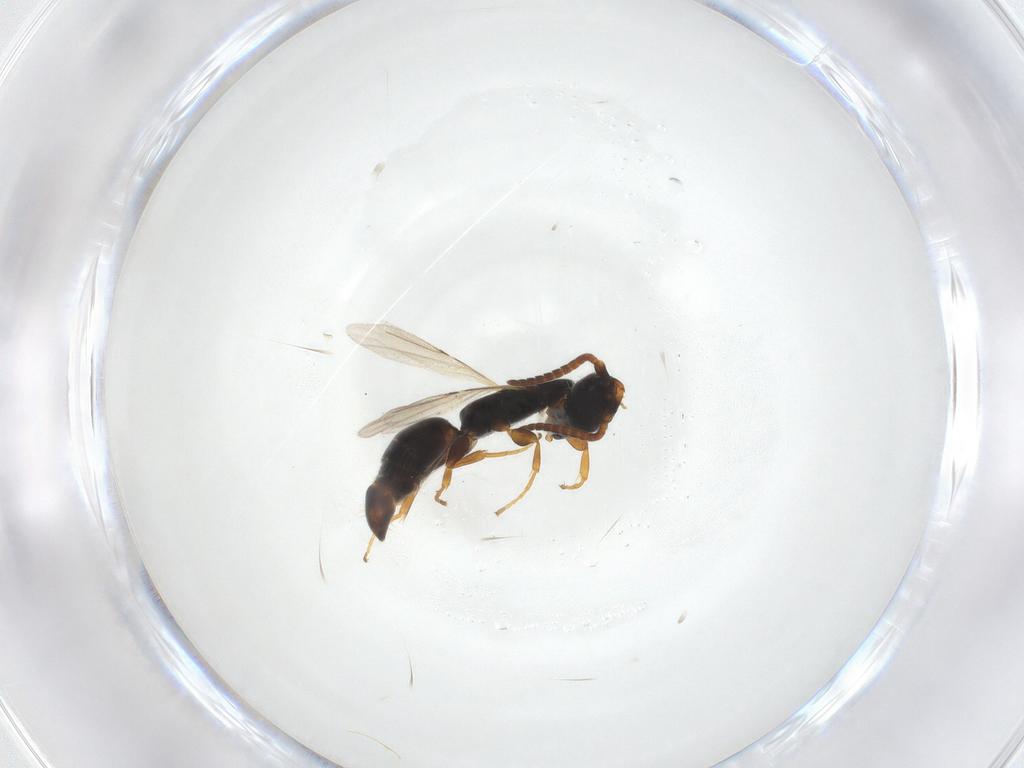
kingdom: Animalia
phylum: Arthropoda
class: Insecta
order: Hymenoptera
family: Bethylidae
